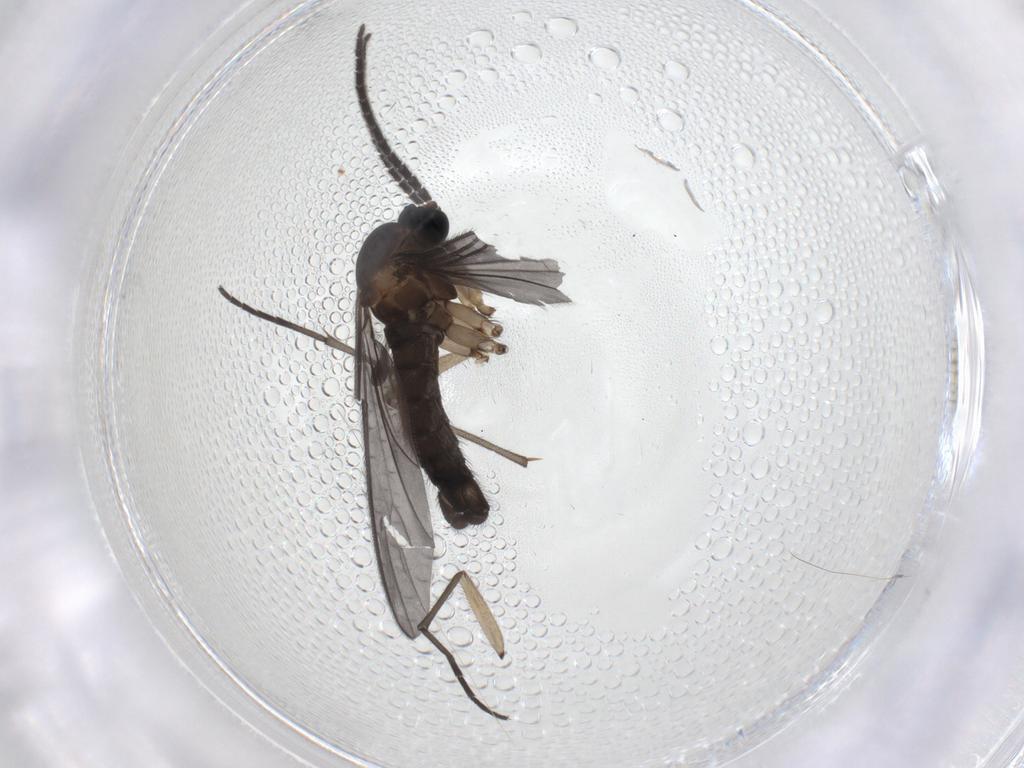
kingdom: Animalia
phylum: Arthropoda
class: Insecta
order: Diptera
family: Sciaridae
